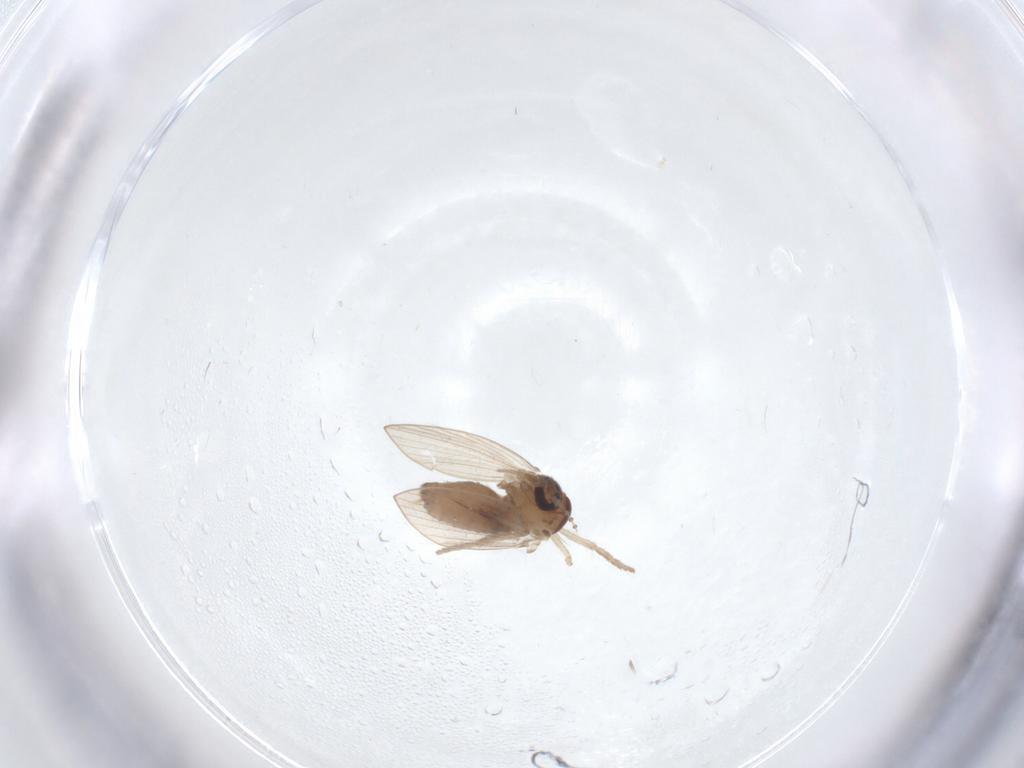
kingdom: Animalia
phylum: Arthropoda
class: Insecta
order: Diptera
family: Psychodidae
